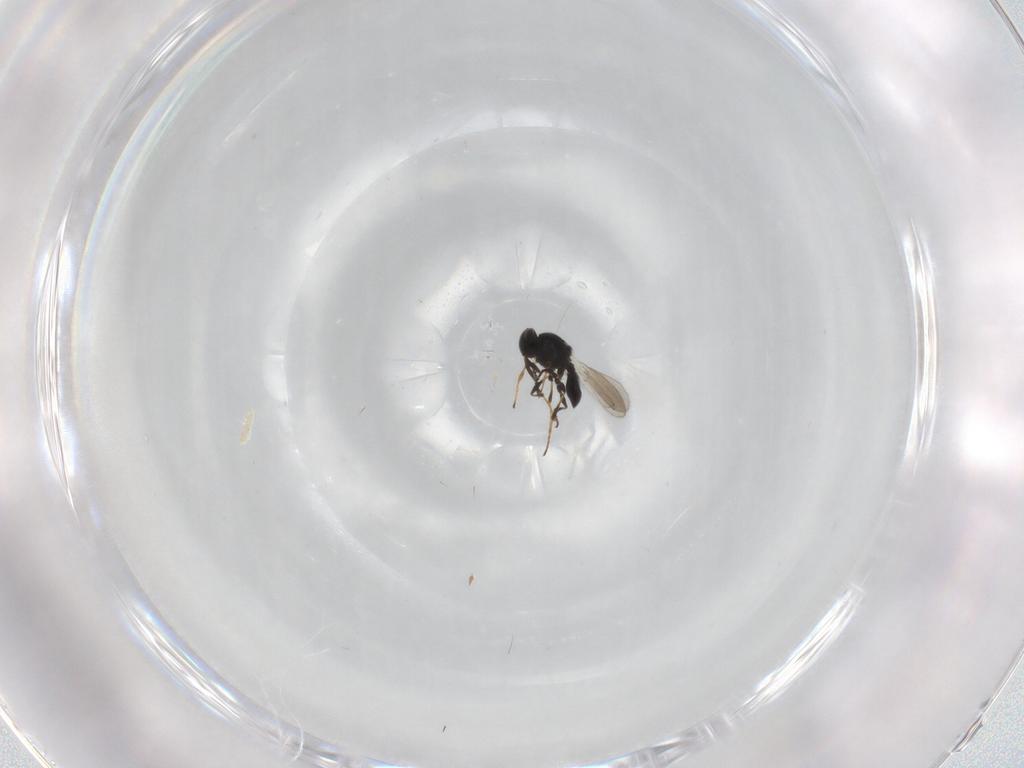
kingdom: Animalia
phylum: Arthropoda
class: Insecta
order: Hymenoptera
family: Platygastridae
